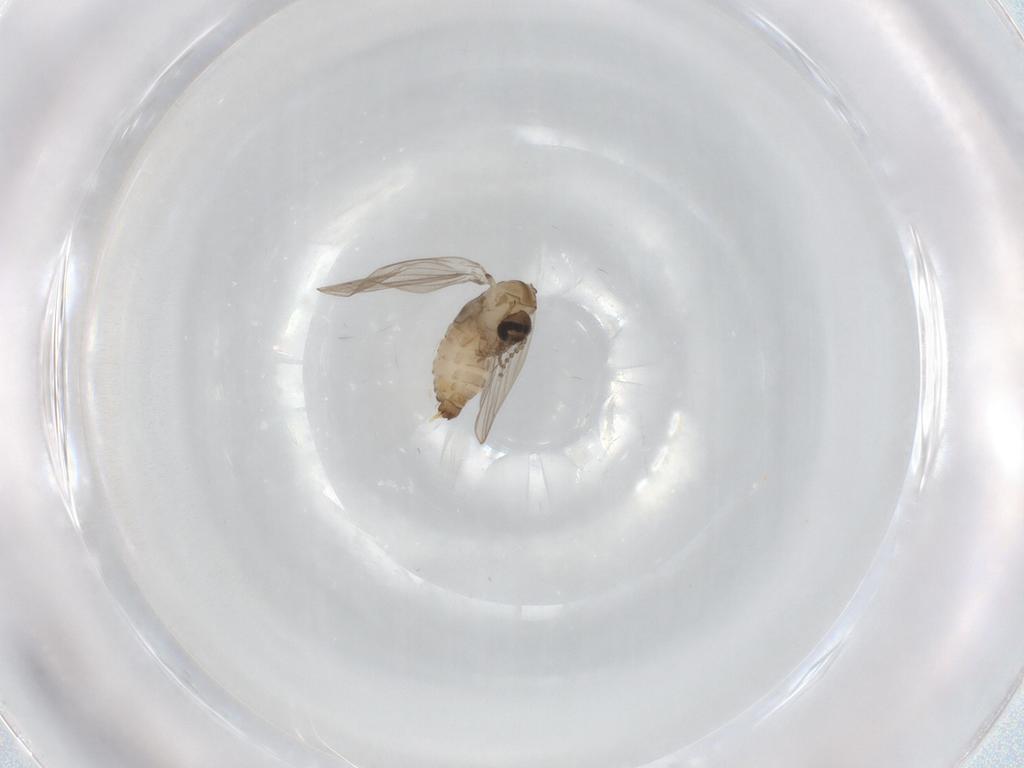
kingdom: Animalia
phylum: Arthropoda
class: Insecta
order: Diptera
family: Psychodidae
